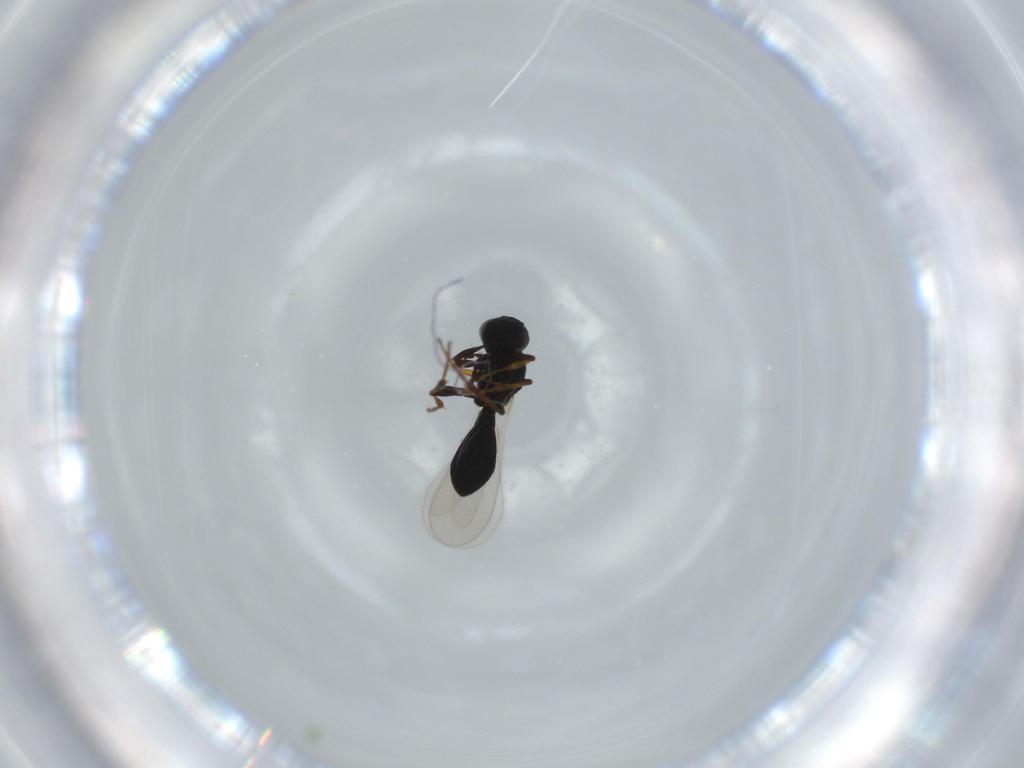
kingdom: Animalia
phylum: Arthropoda
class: Insecta
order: Hymenoptera
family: Platygastridae
